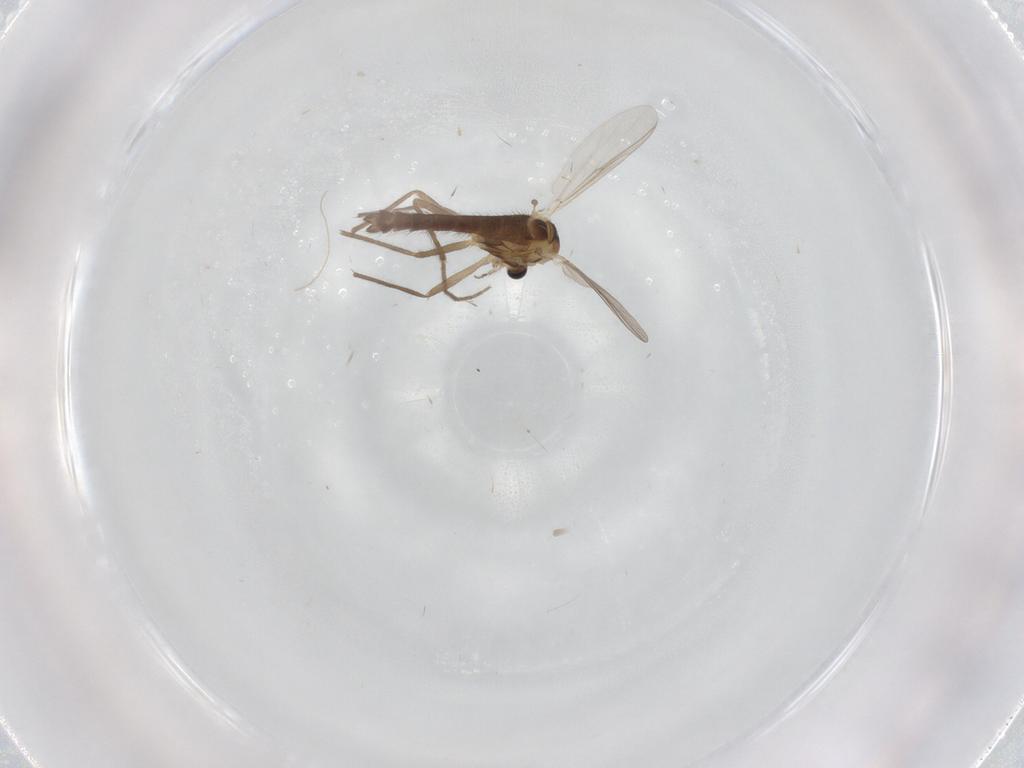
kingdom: Animalia
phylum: Arthropoda
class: Insecta
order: Diptera
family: Chironomidae
